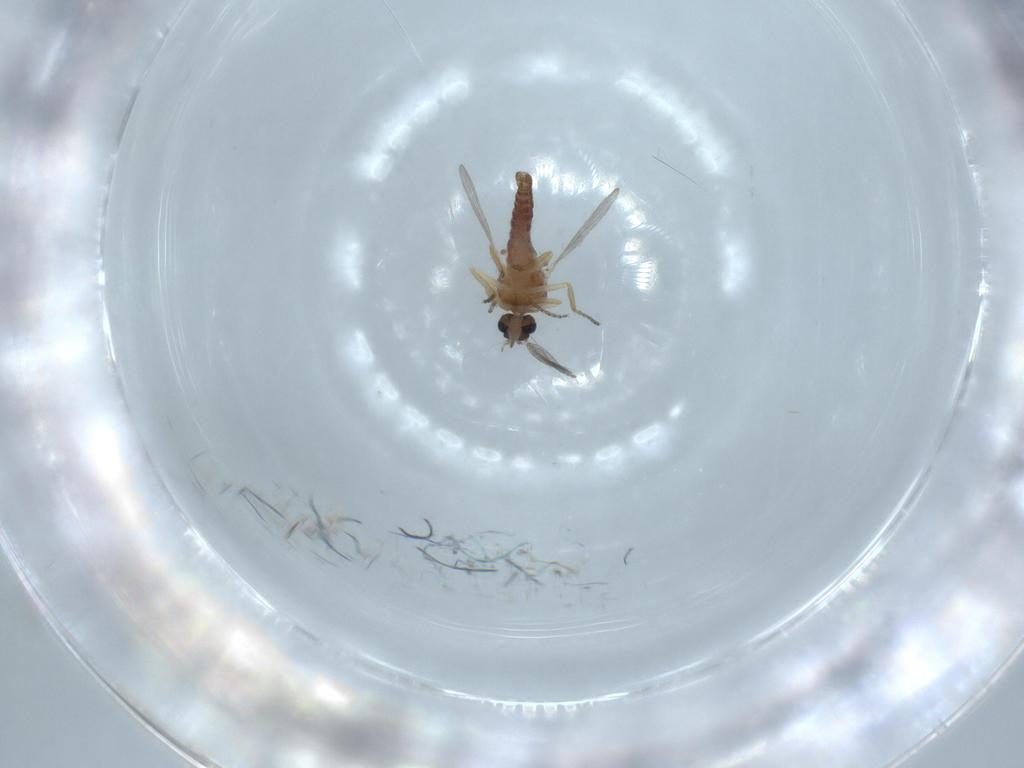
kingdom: Animalia
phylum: Arthropoda
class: Insecta
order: Diptera
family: Ceratopogonidae
